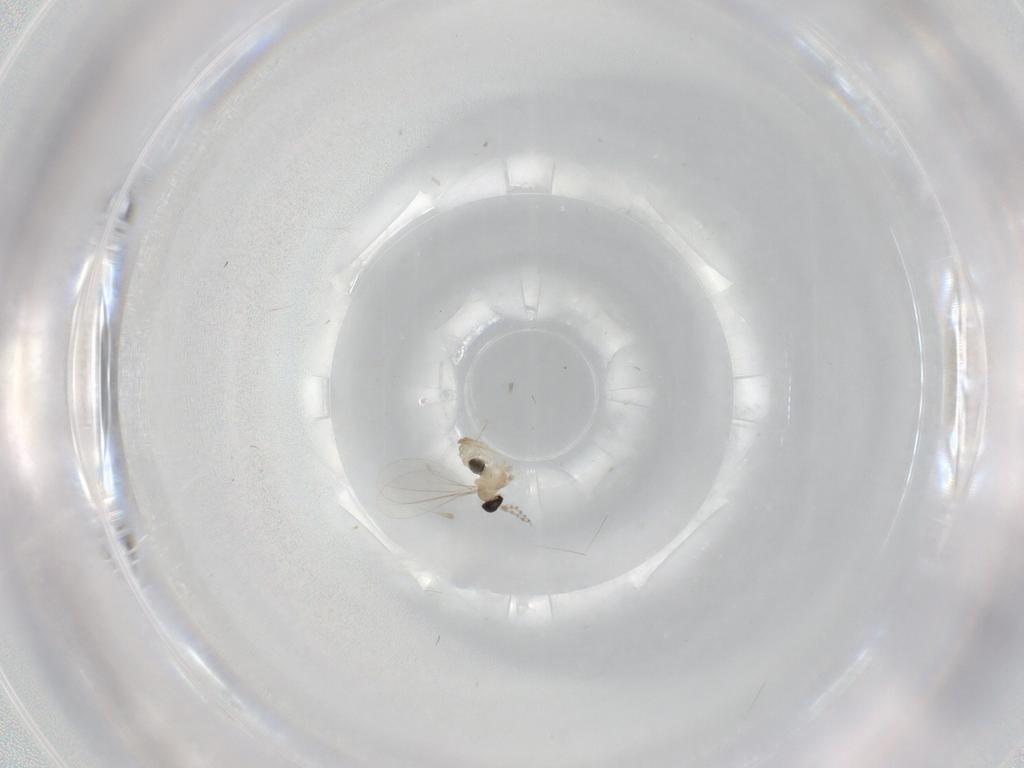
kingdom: Animalia
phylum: Arthropoda
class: Insecta
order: Diptera
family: Cecidomyiidae
